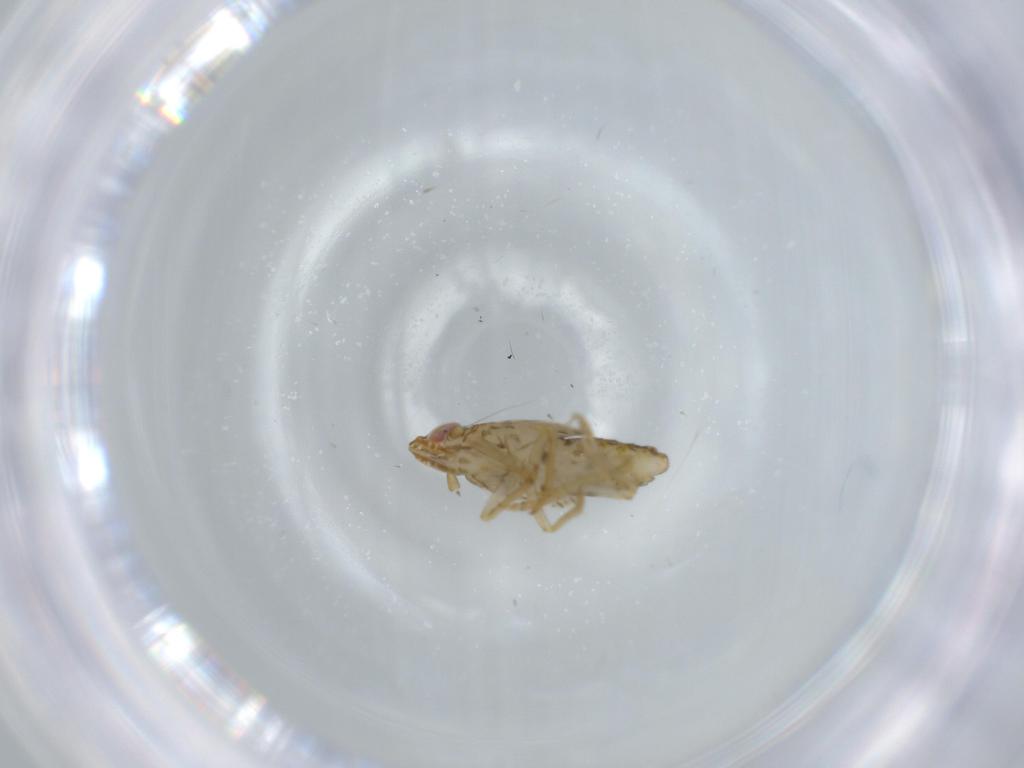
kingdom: Animalia
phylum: Arthropoda
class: Insecta
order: Hemiptera
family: Delphacidae
